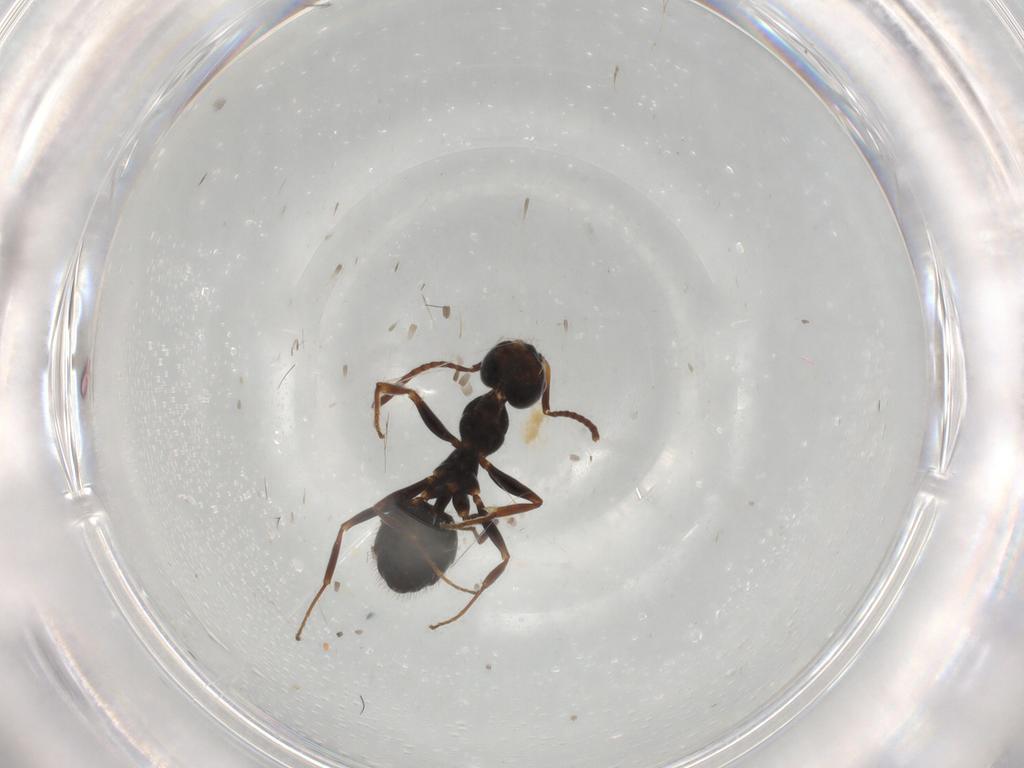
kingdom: Animalia
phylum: Arthropoda
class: Insecta
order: Hymenoptera
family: Formicidae
